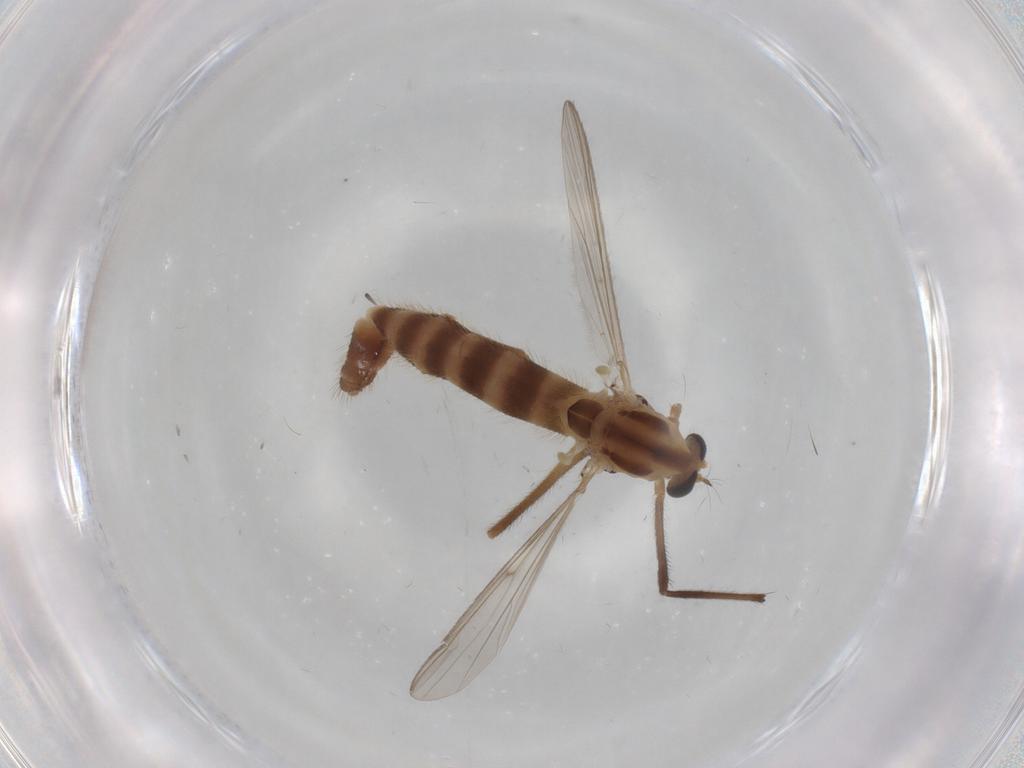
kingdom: Animalia
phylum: Arthropoda
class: Insecta
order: Diptera
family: Chironomidae
